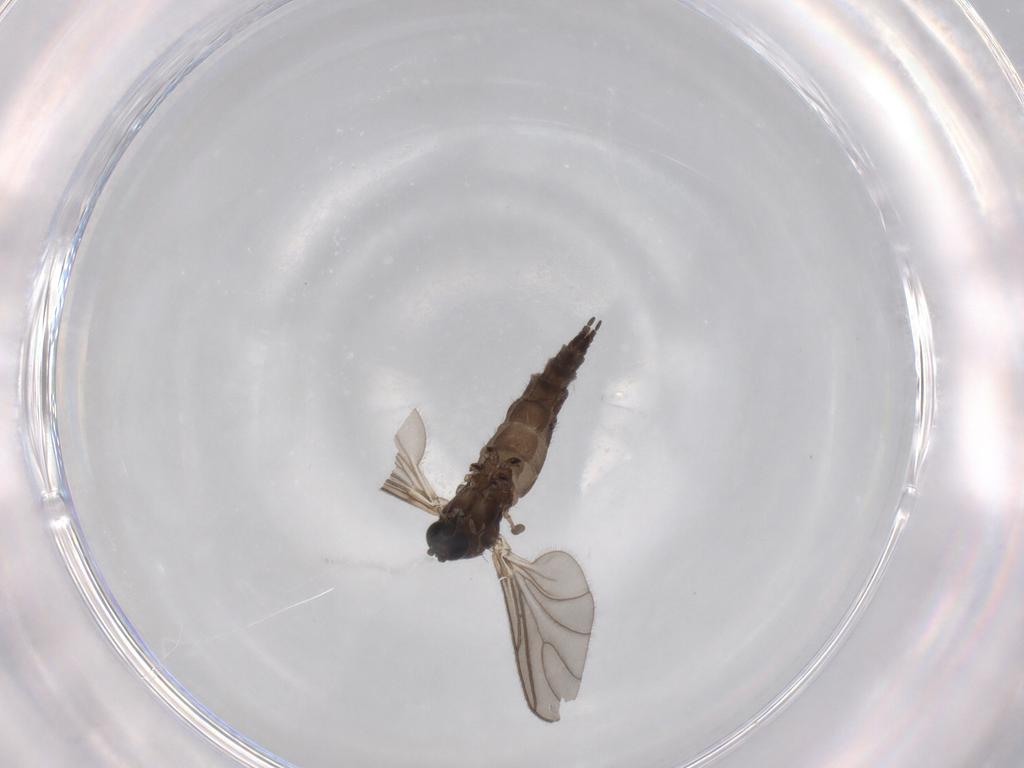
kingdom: Animalia
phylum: Arthropoda
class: Insecta
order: Diptera
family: Sciaridae
